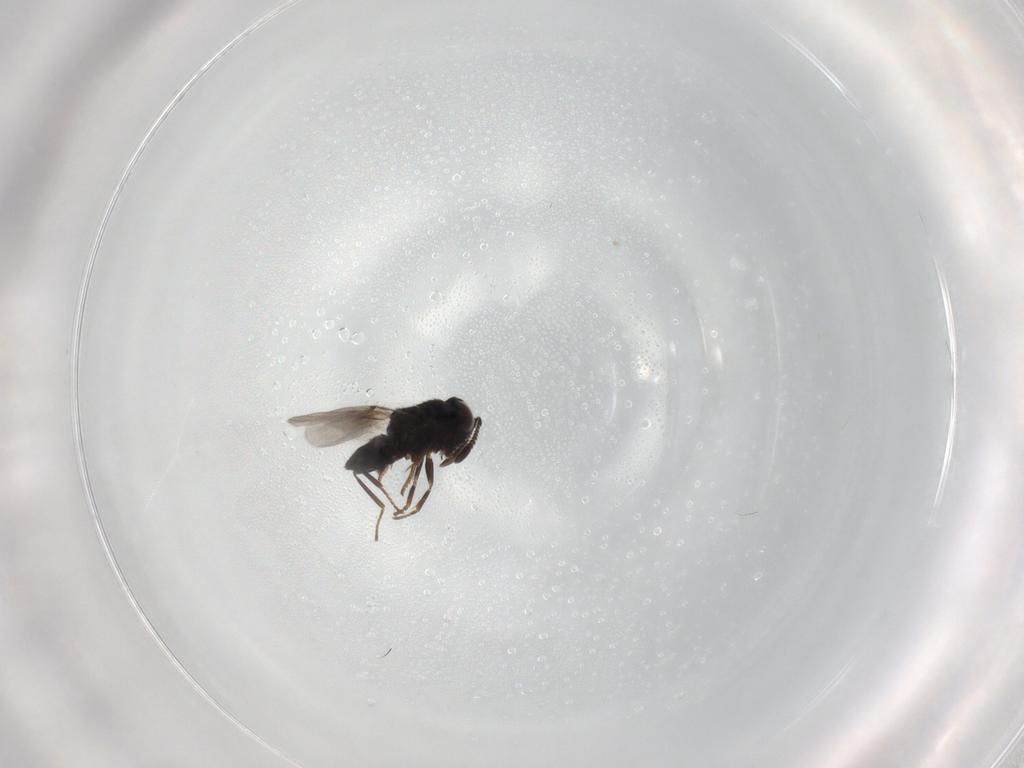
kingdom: Animalia
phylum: Arthropoda
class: Insecta
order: Hymenoptera
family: Encyrtidae
